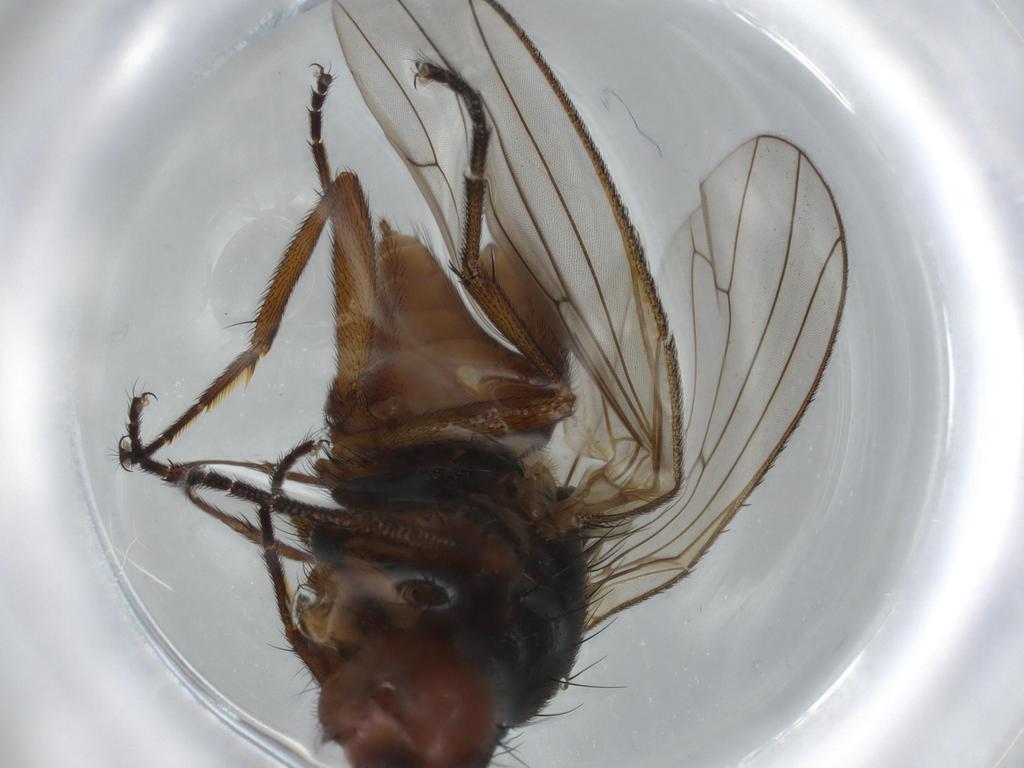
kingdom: Animalia
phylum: Arthropoda
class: Insecta
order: Diptera
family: Heleomyzidae
